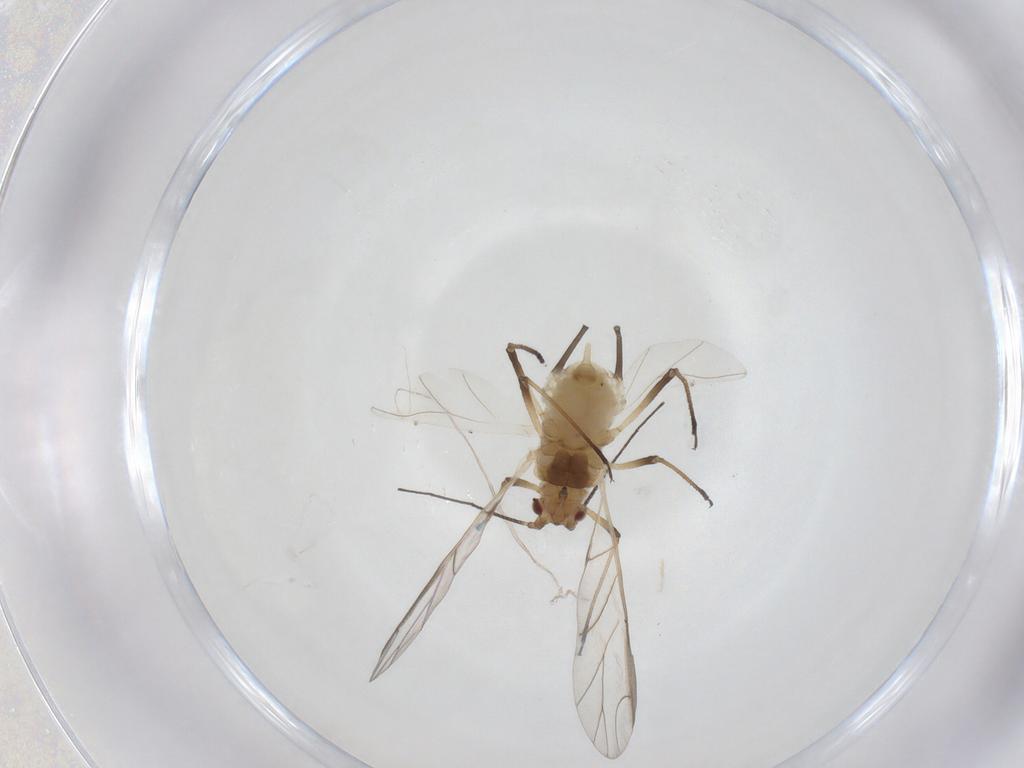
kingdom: Animalia
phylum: Arthropoda
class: Insecta
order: Hemiptera
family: Aphididae
